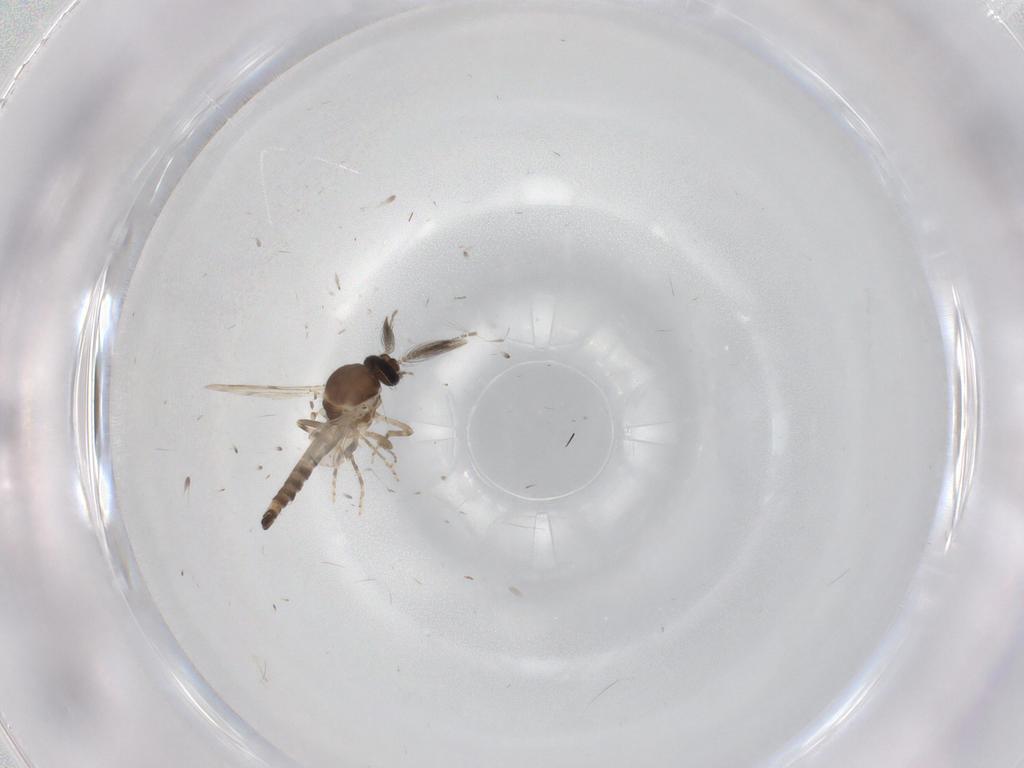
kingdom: Animalia
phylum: Arthropoda
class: Insecta
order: Diptera
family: Ceratopogonidae
